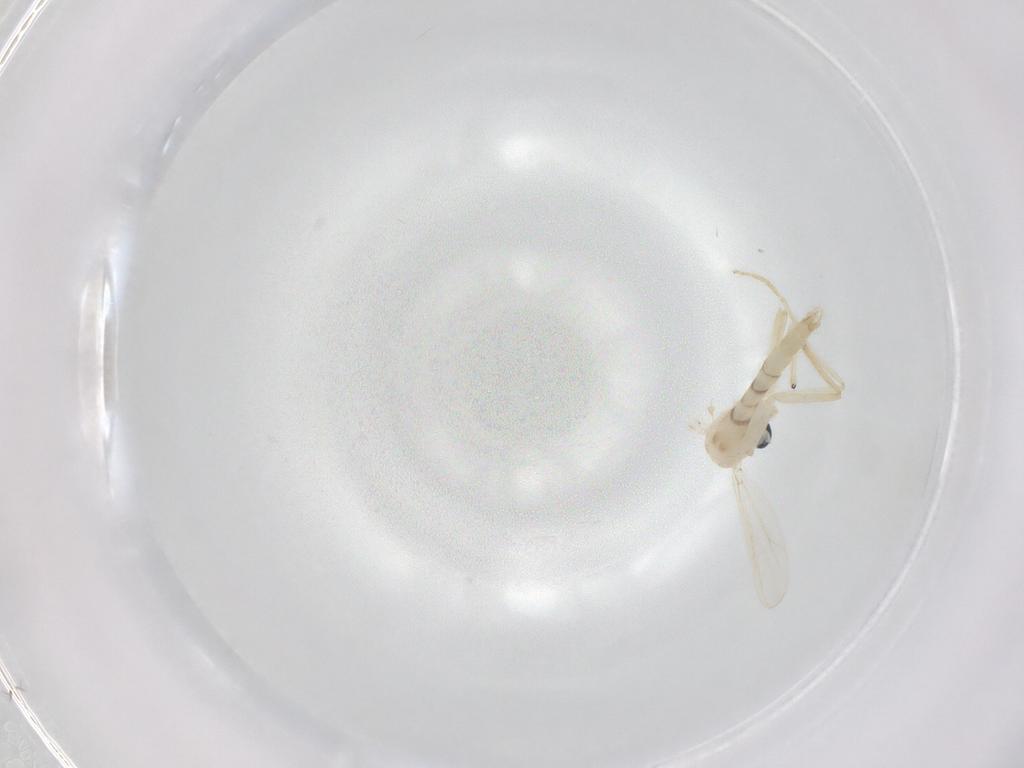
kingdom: Animalia
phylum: Arthropoda
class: Insecta
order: Diptera
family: Chironomidae
